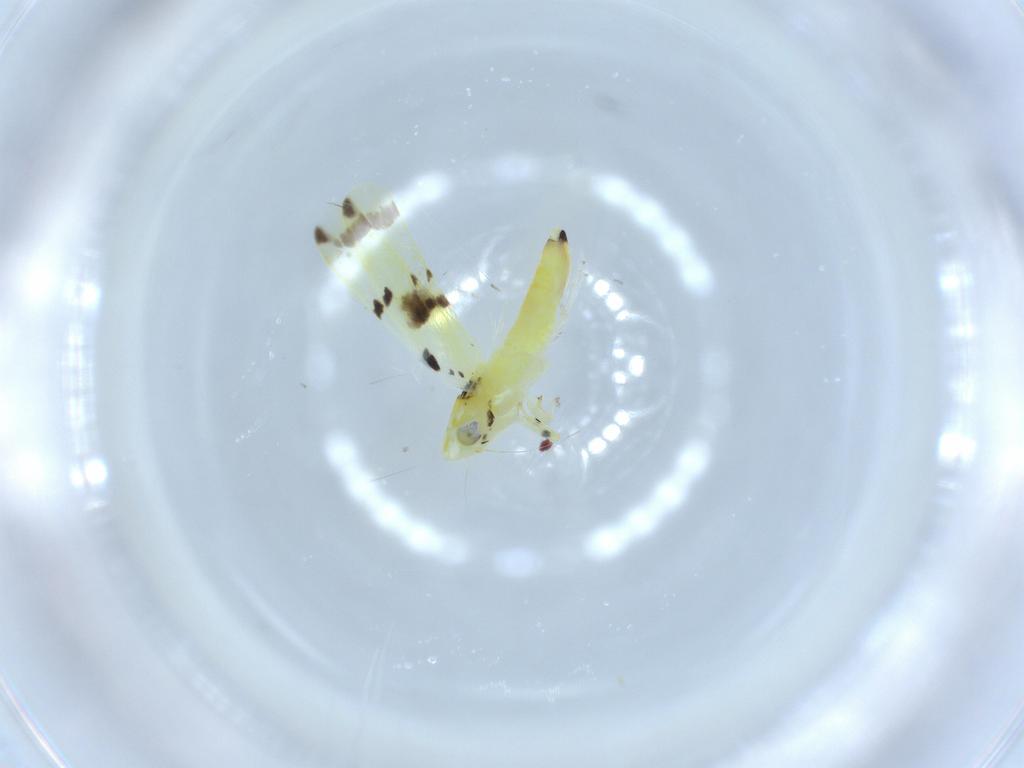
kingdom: Animalia
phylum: Arthropoda
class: Insecta
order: Hemiptera
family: Cicadellidae
